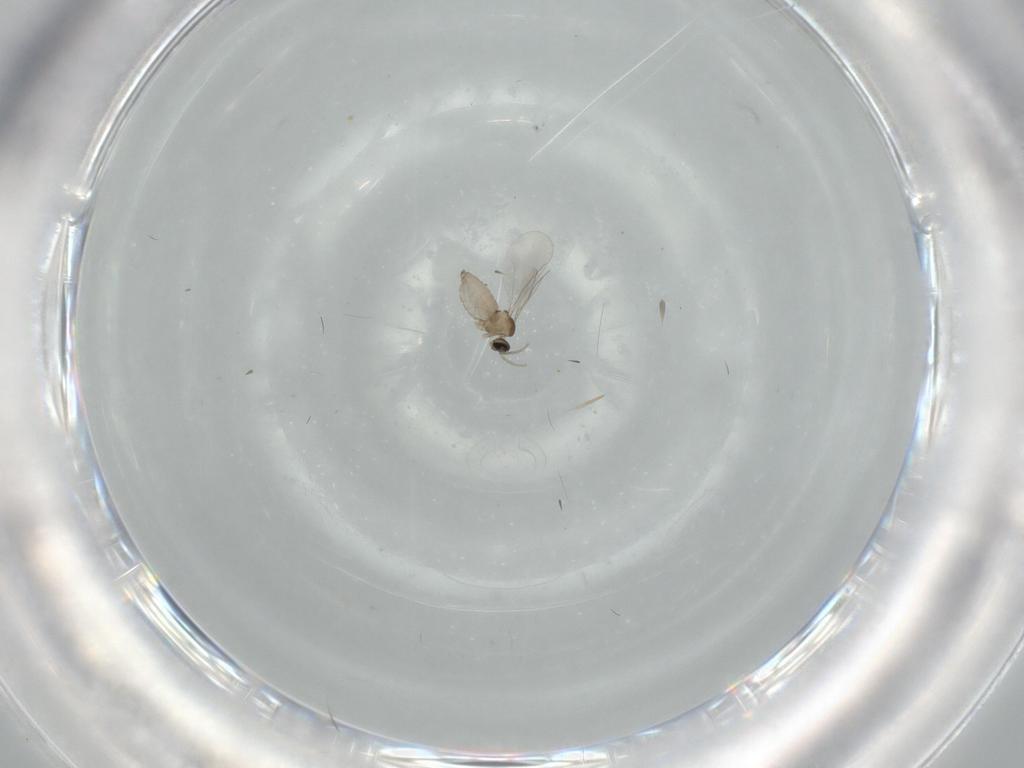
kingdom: Animalia
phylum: Arthropoda
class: Insecta
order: Diptera
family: Cecidomyiidae
